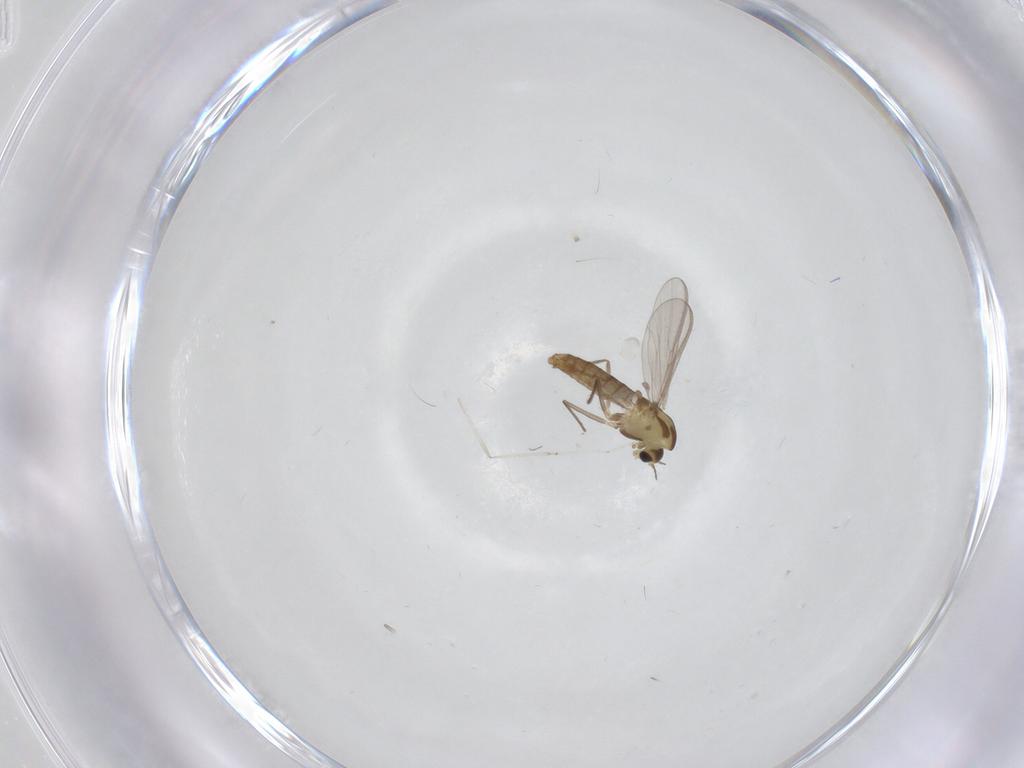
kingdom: Animalia
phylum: Arthropoda
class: Insecta
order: Diptera
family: Chironomidae
